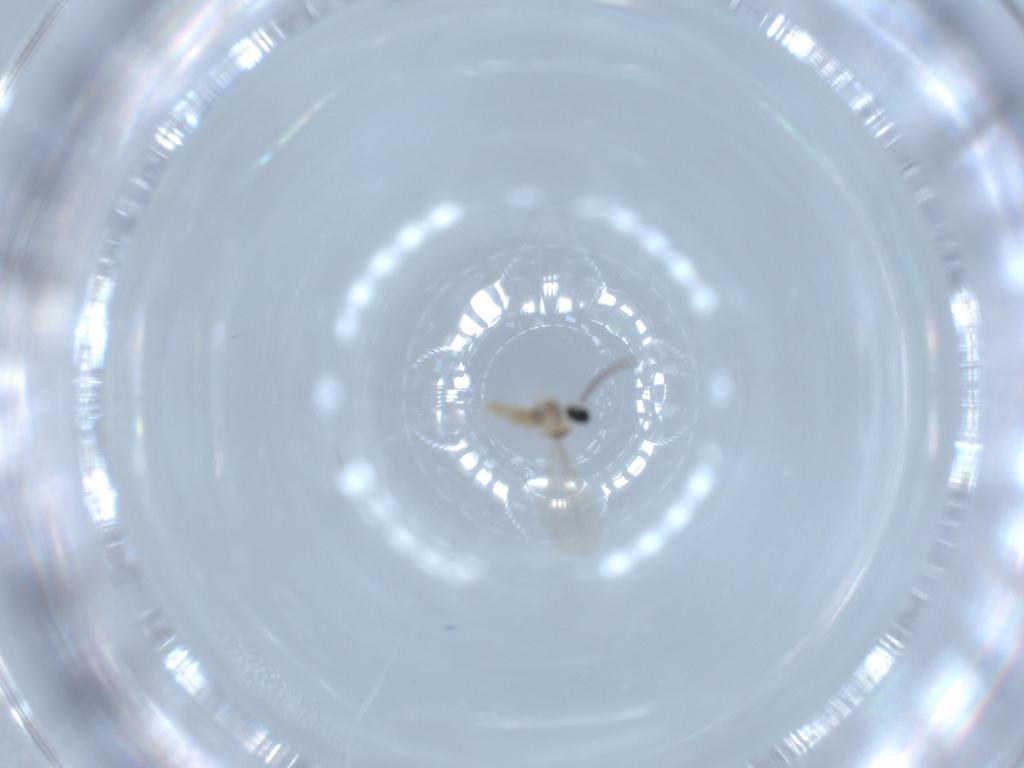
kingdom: Animalia
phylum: Arthropoda
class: Insecta
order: Diptera
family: Cecidomyiidae
